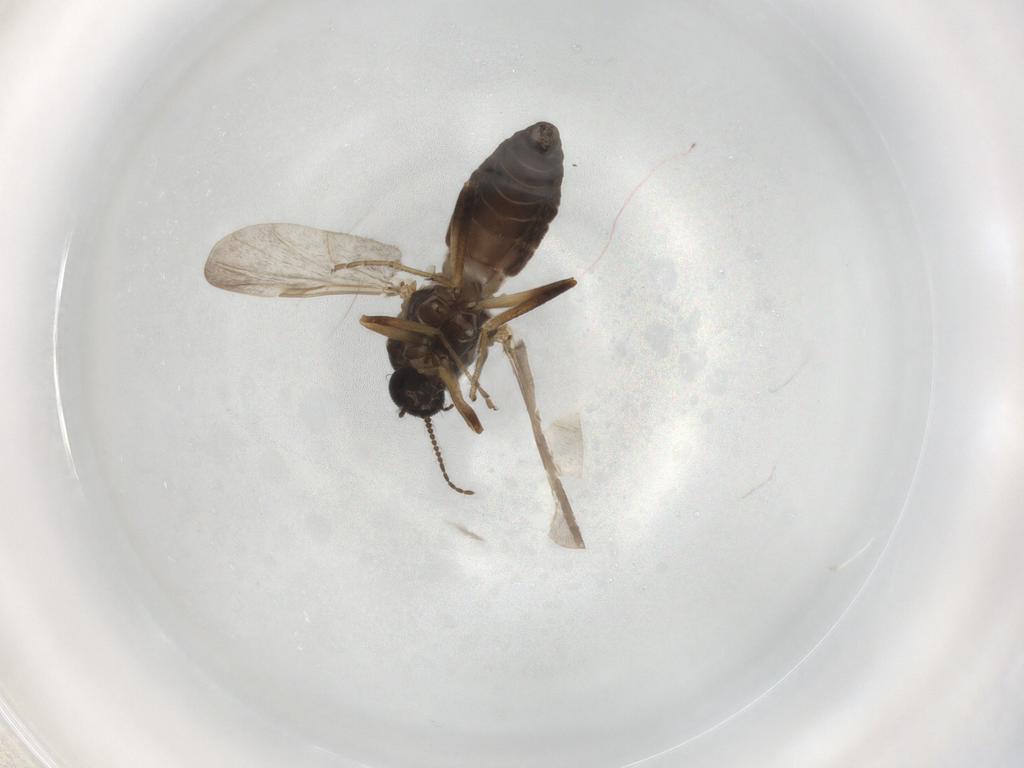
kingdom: Animalia
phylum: Arthropoda
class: Insecta
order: Diptera
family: Ceratopogonidae
